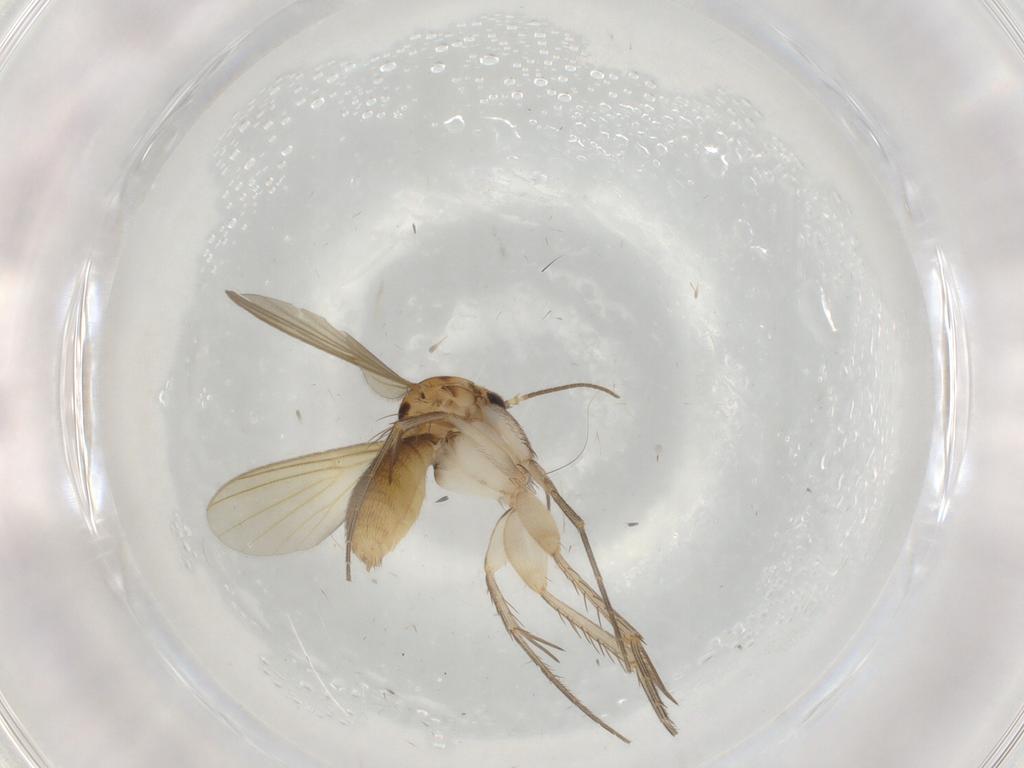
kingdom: Animalia
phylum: Arthropoda
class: Insecta
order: Diptera
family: Mycetophilidae
